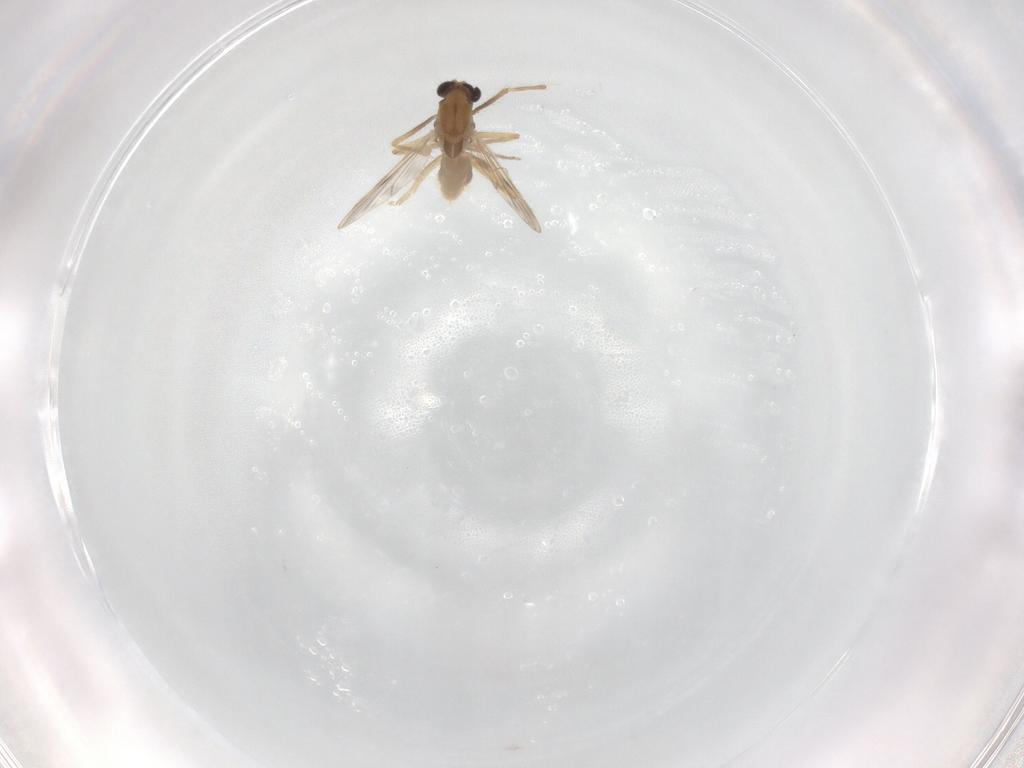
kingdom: Animalia
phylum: Arthropoda
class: Insecta
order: Diptera
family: Chironomidae
